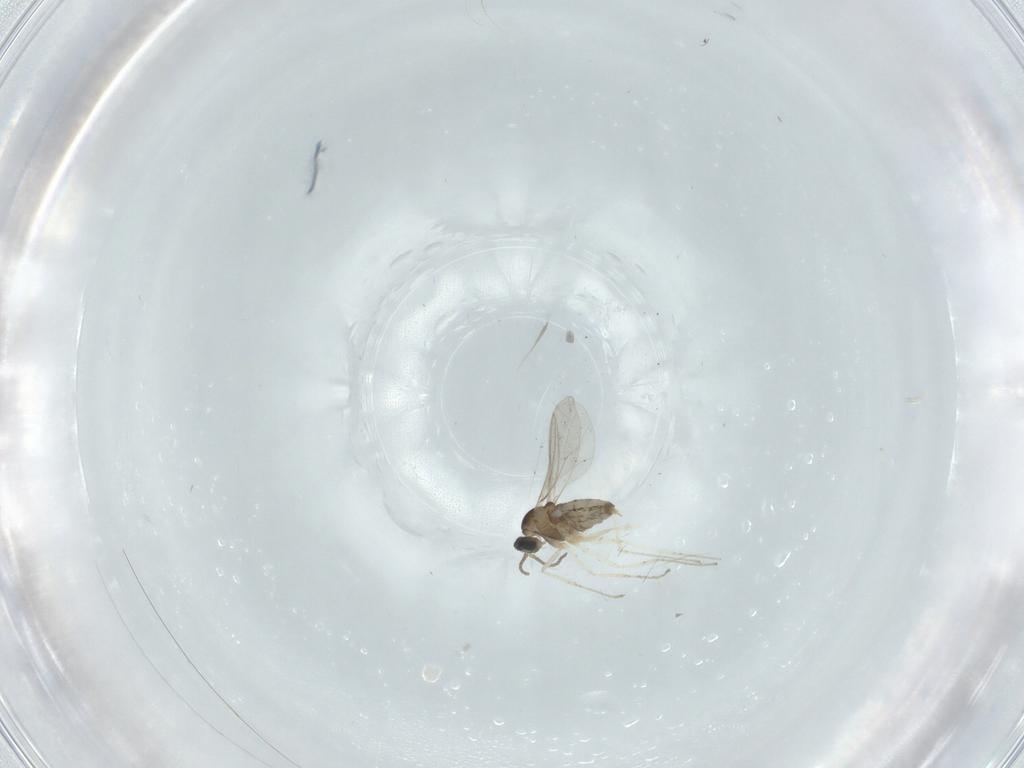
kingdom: Animalia
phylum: Arthropoda
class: Insecta
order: Diptera
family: Cecidomyiidae
